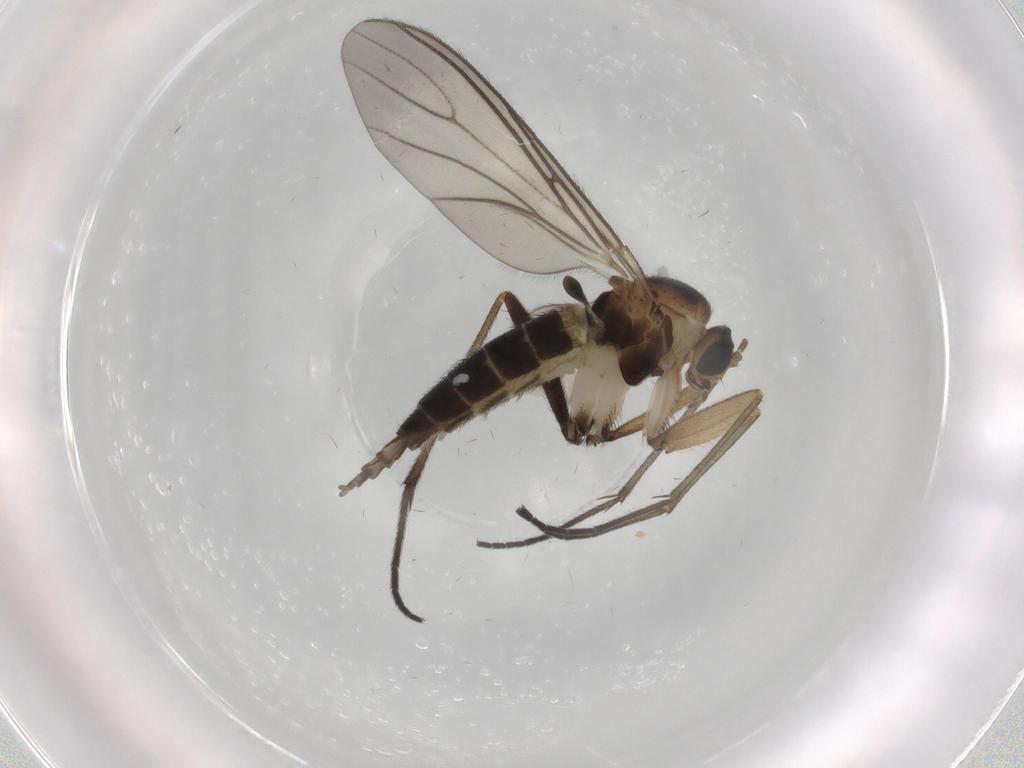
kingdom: Animalia
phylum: Arthropoda
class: Insecta
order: Diptera
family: Sciaridae
